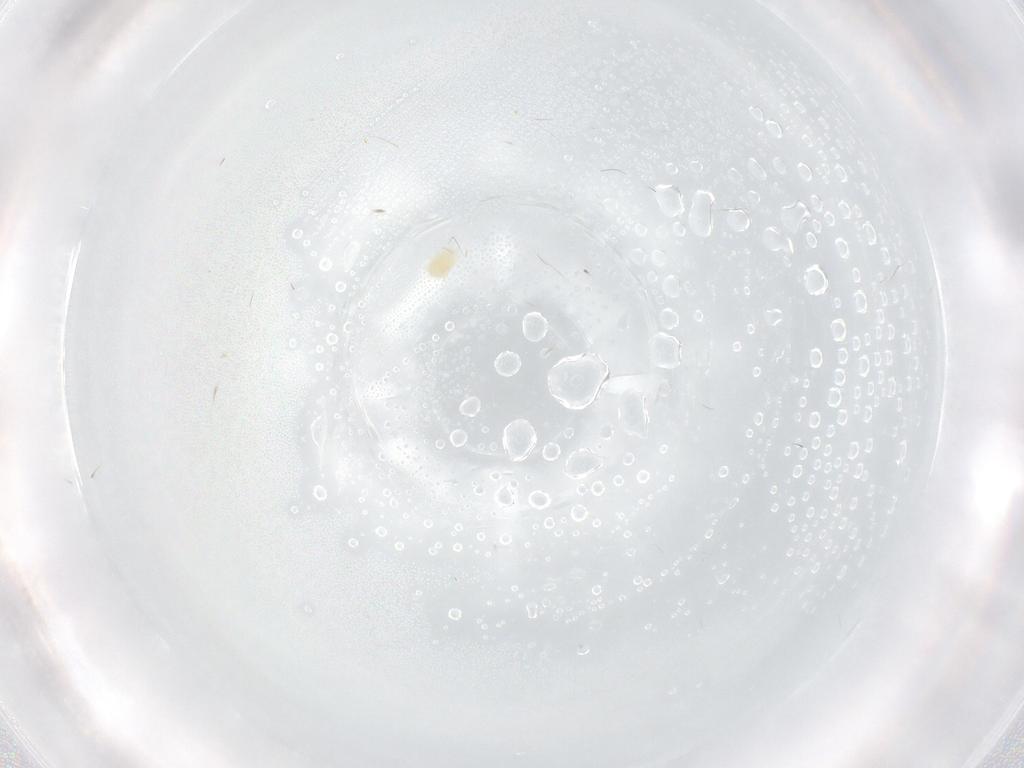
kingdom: Animalia
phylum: Arthropoda
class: Arachnida
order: Trombidiformes
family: Tetranychidae
